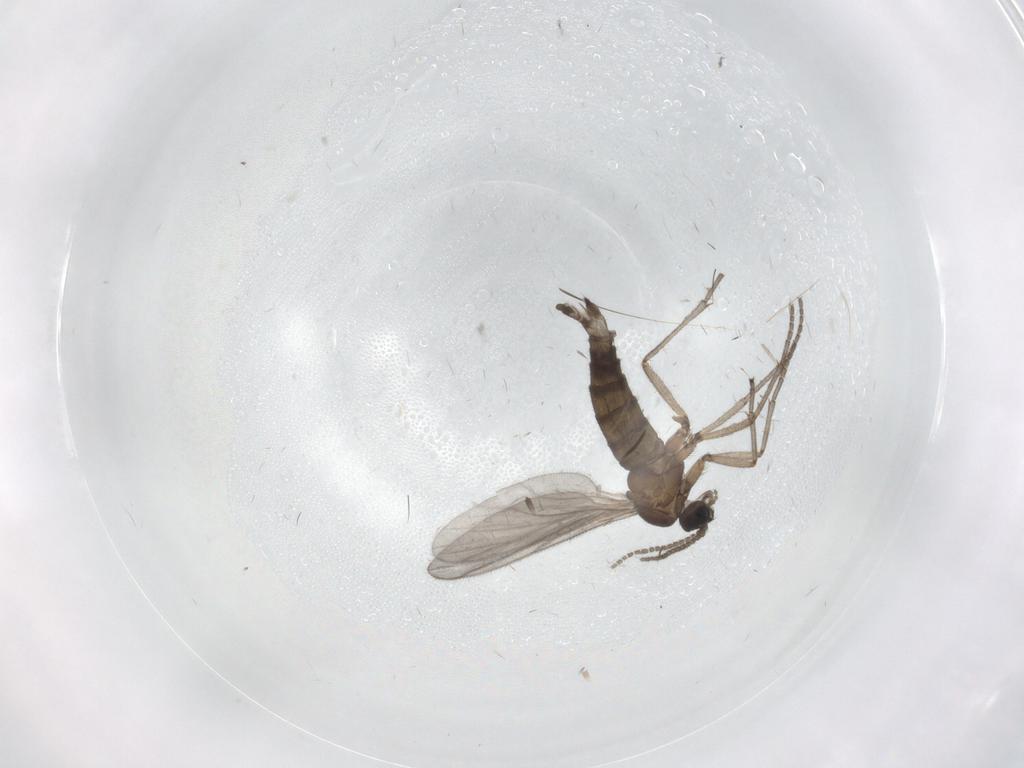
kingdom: Animalia
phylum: Arthropoda
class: Insecta
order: Diptera
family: Sciaridae
